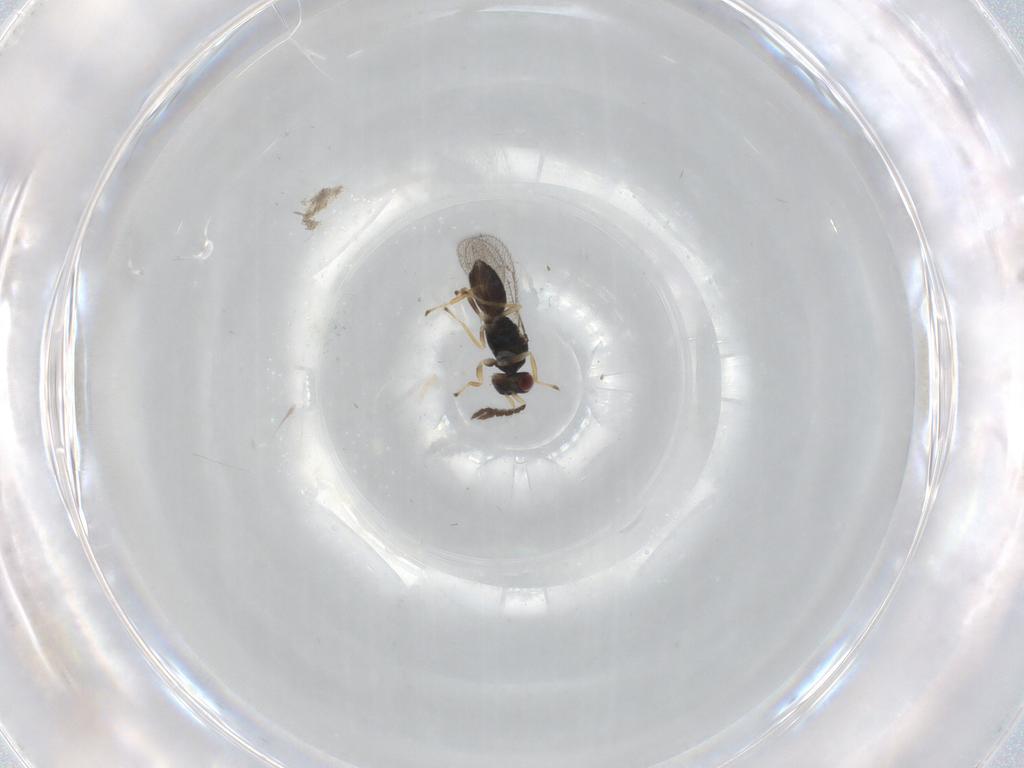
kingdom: Animalia
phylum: Arthropoda
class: Insecta
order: Hymenoptera
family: Eulophidae
